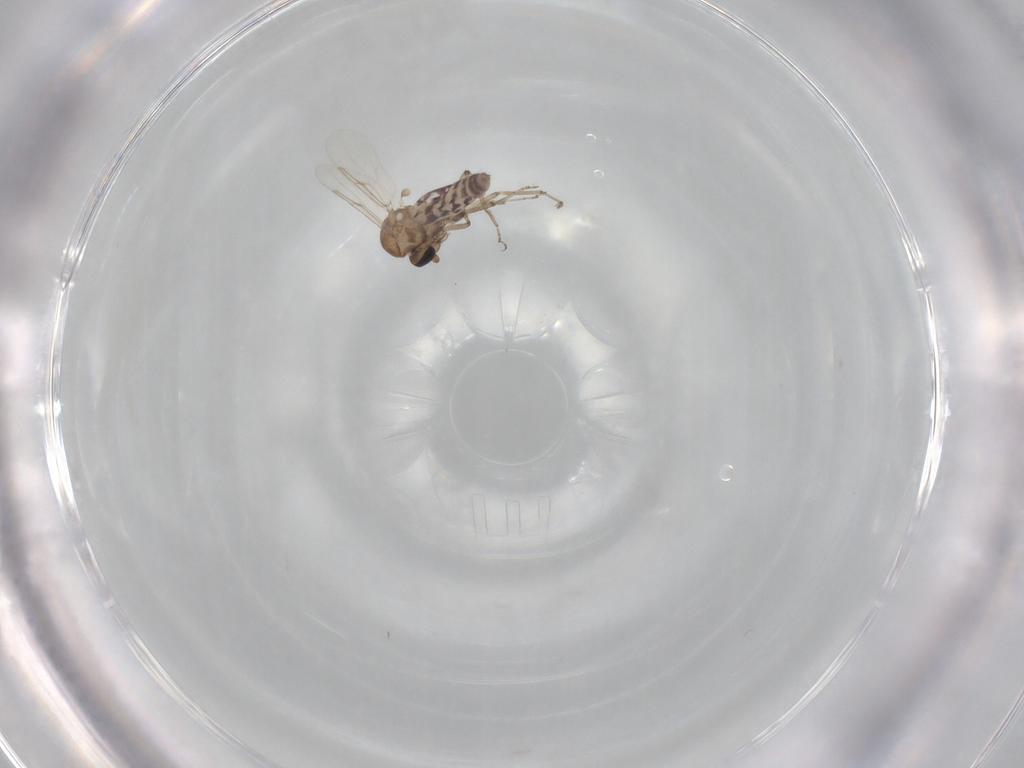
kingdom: Animalia
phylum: Arthropoda
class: Insecta
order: Diptera
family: Ceratopogonidae
